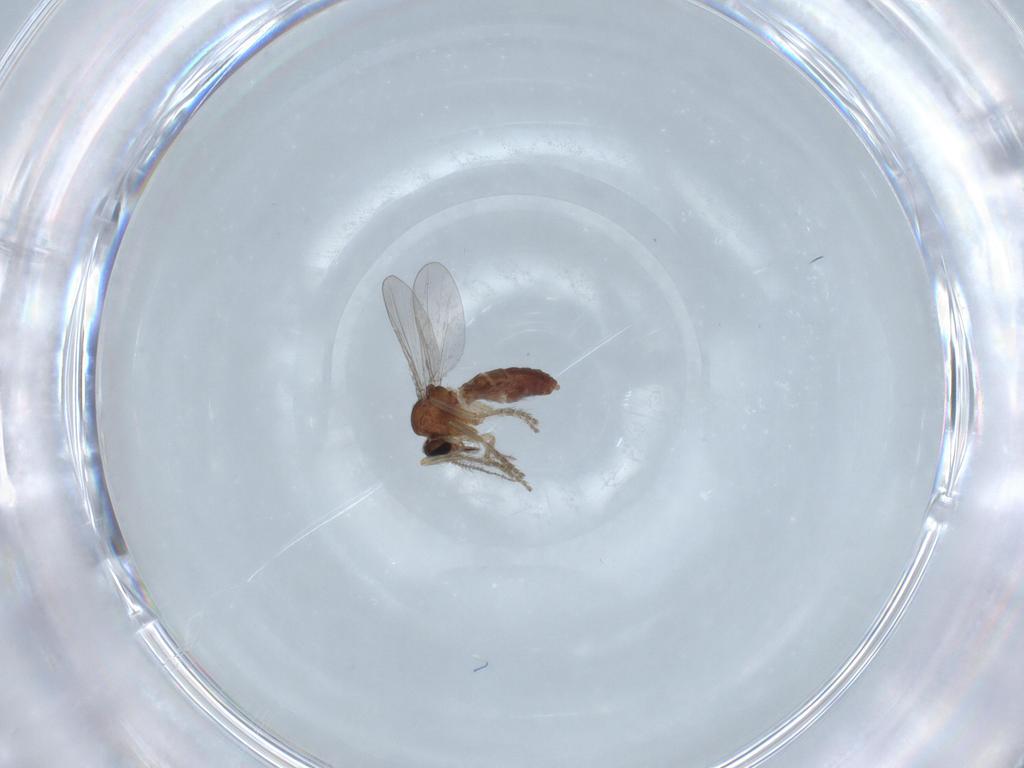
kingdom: Animalia
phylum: Arthropoda
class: Insecta
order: Diptera
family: Ceratopogonidae
